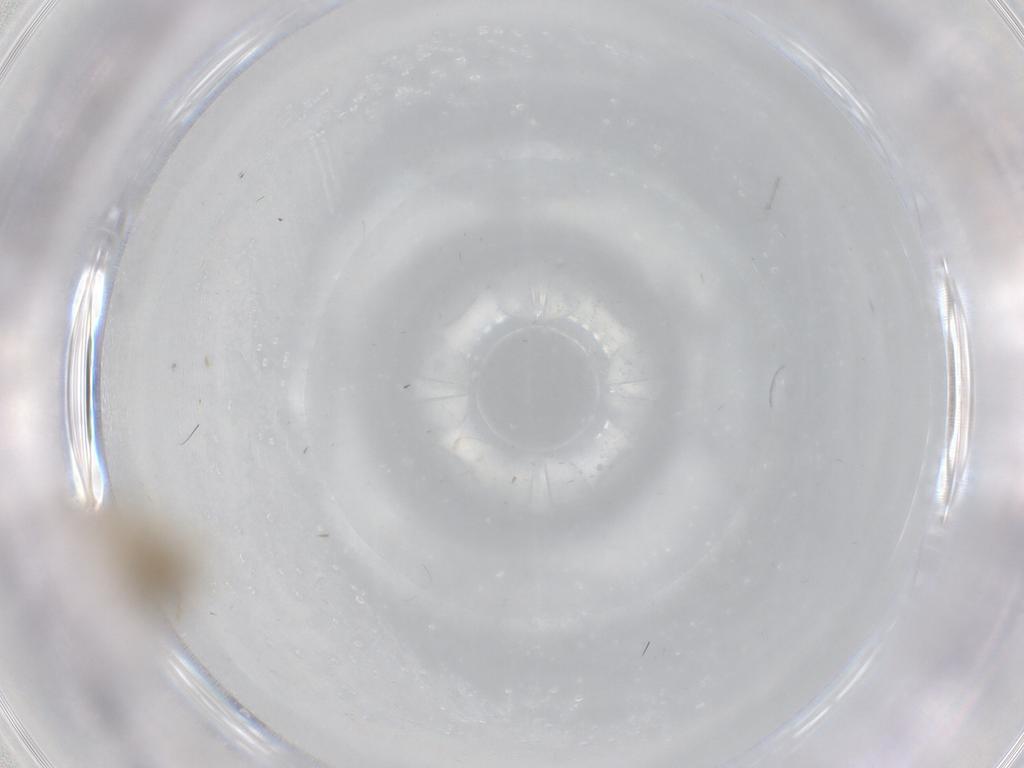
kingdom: Animalia
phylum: Arthropoda
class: Insecta
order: Diptera
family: Chironomidae
